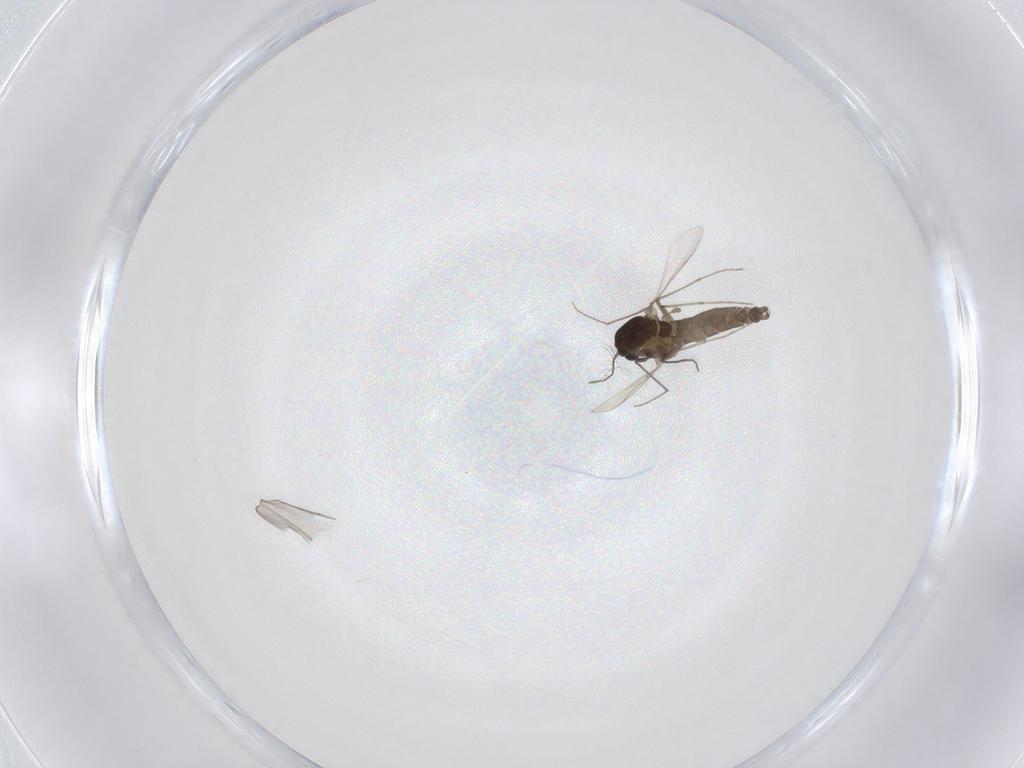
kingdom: Animalia
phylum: Arthropoda
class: Insecta
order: Diptera
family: Chironomidae
